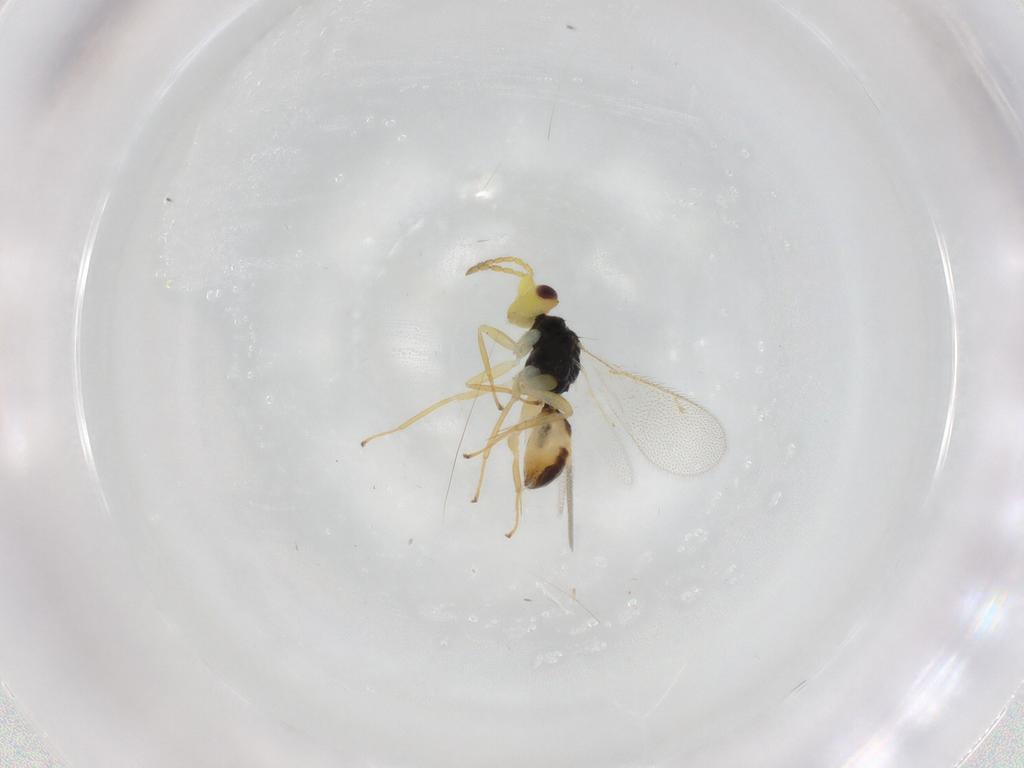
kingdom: Animalia
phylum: Arthropoda
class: Insecta
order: Hymenoptera
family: Eulophidae
